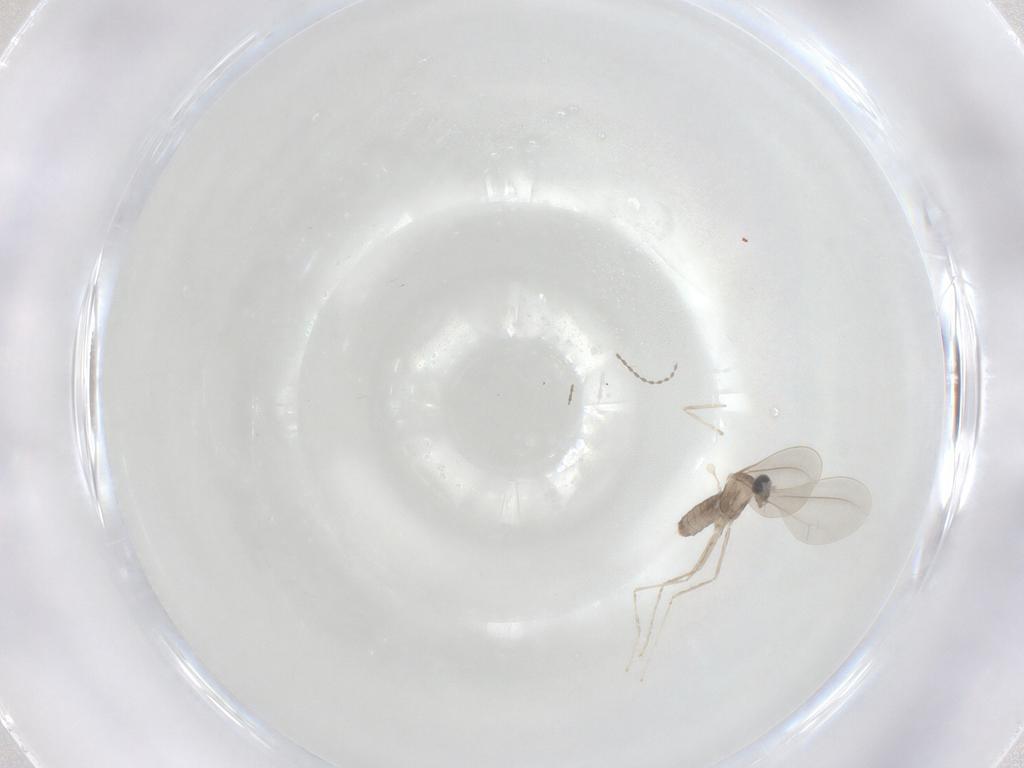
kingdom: Animalia
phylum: Arthropoda
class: Insecta
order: Diptera
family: Cecidomyiidae
